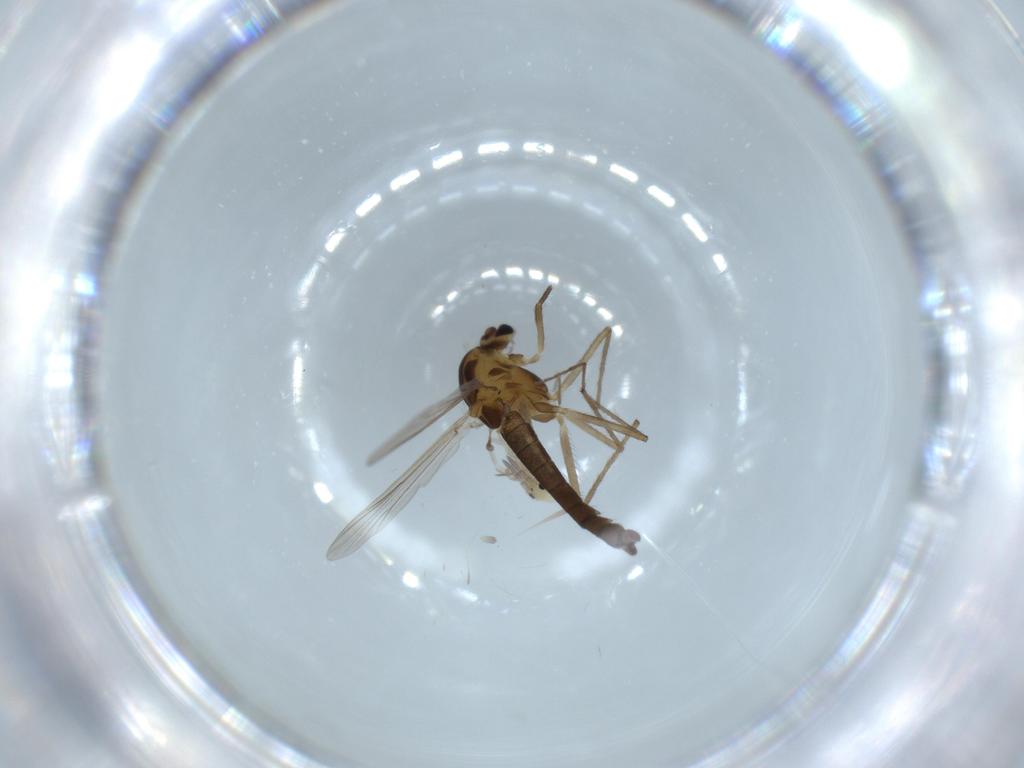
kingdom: Animalia
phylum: Arthropoda
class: Insecta
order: Diptera
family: Chironomidae
